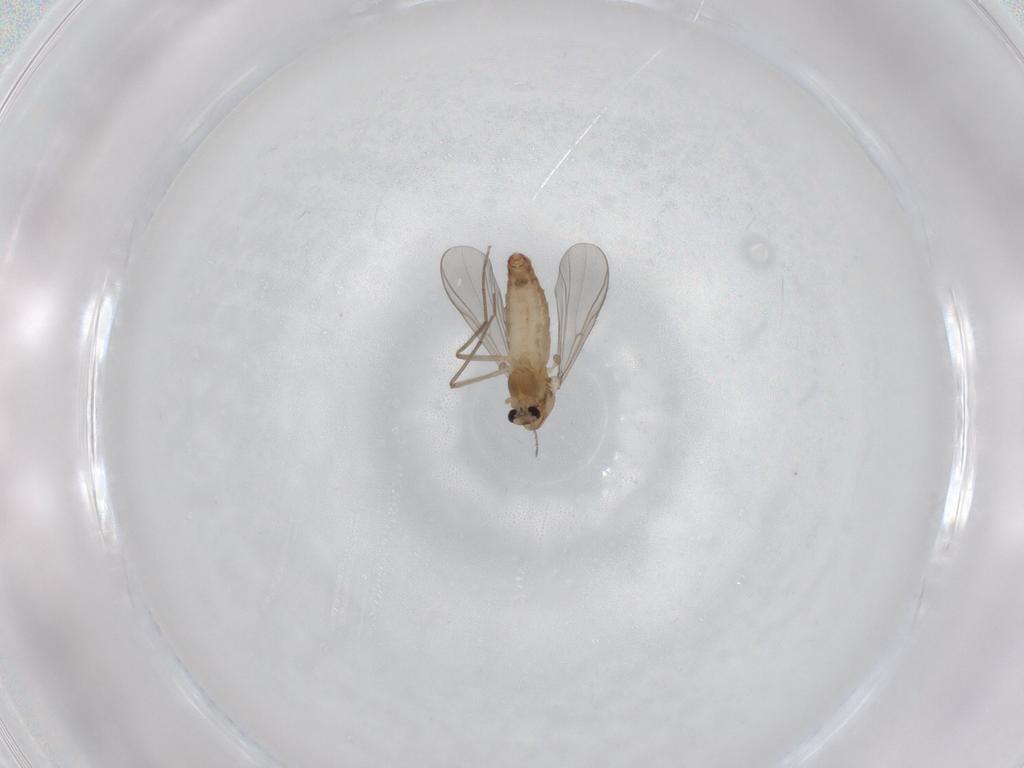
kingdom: Animalia
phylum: Arthropoda
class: Insecta
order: Diptera
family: Chironomidae
